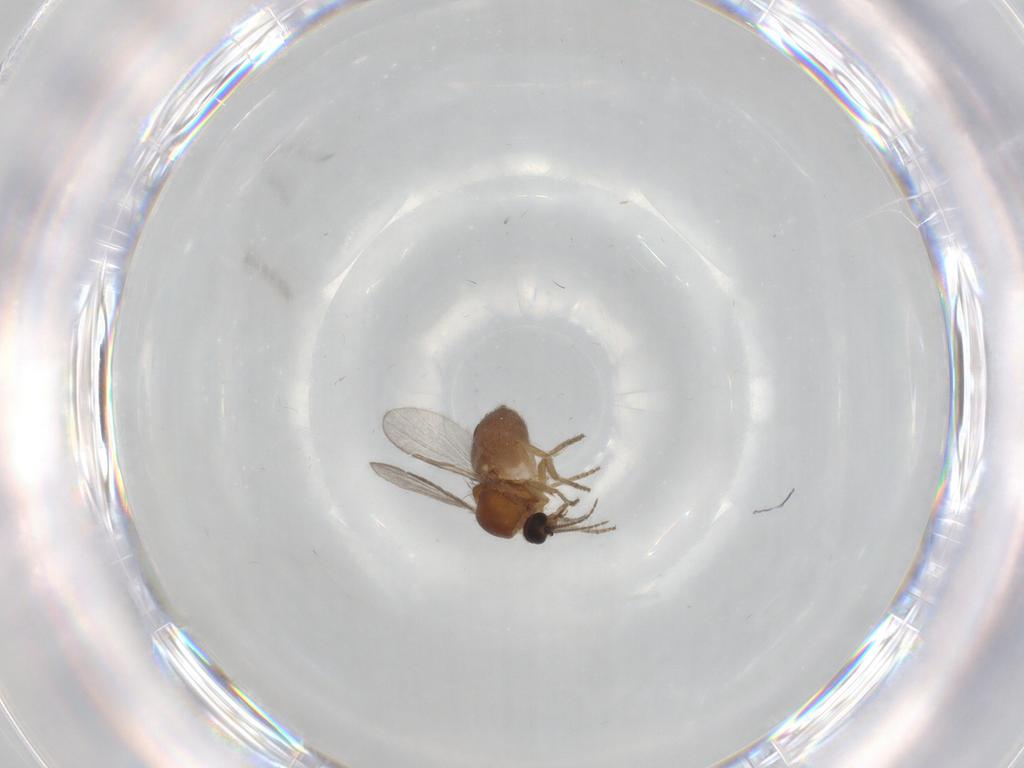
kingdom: Animalia
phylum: Arthropoda
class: Insecta
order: Diptera
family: Ceratopogonidae
